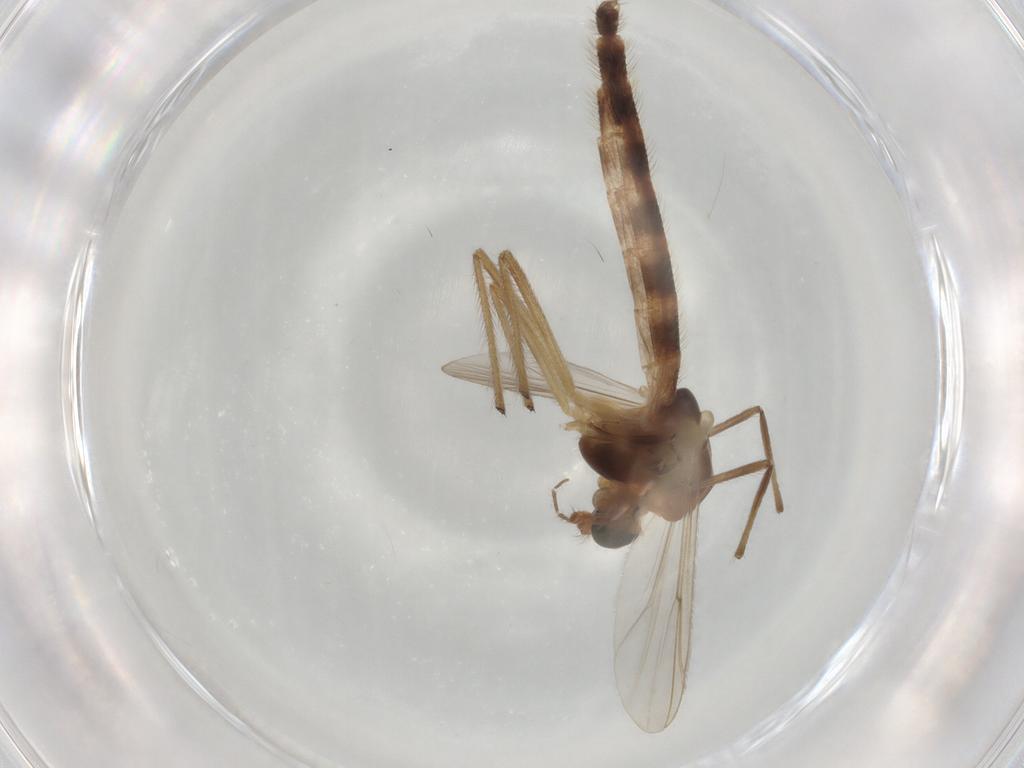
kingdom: Animalia
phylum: Arthropoda
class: Insecta
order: Diptera
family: Chironomidae
